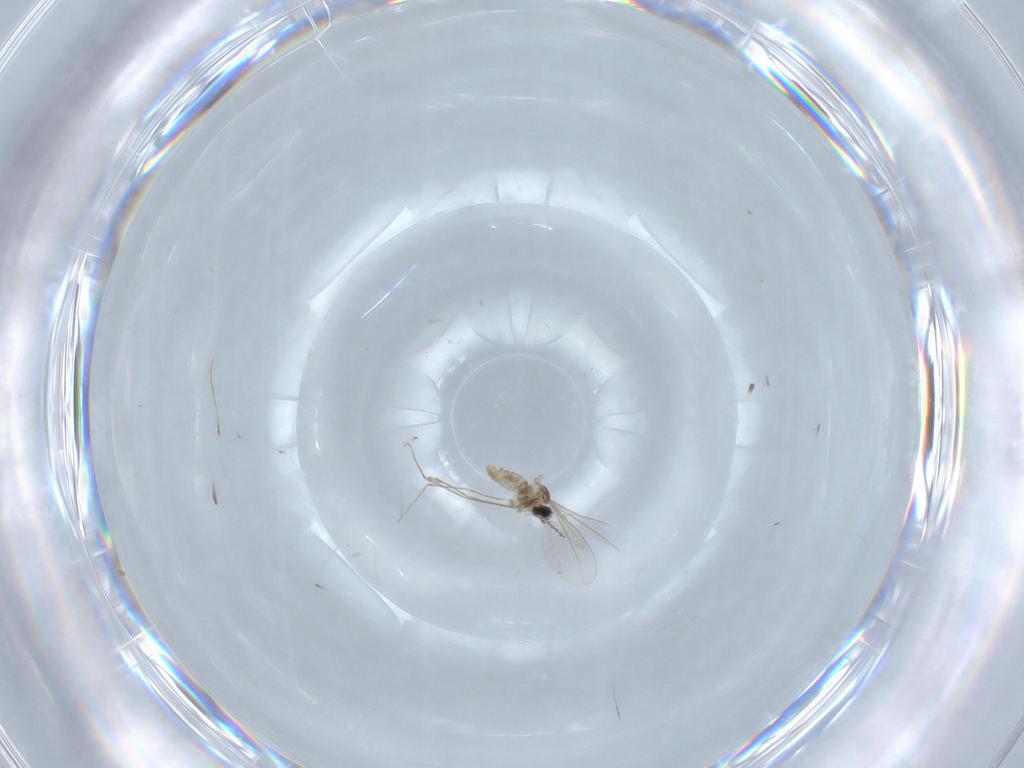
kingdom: Animalia
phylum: Arthropoda
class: Insecta
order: Diptera
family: Cecidomyiidae
